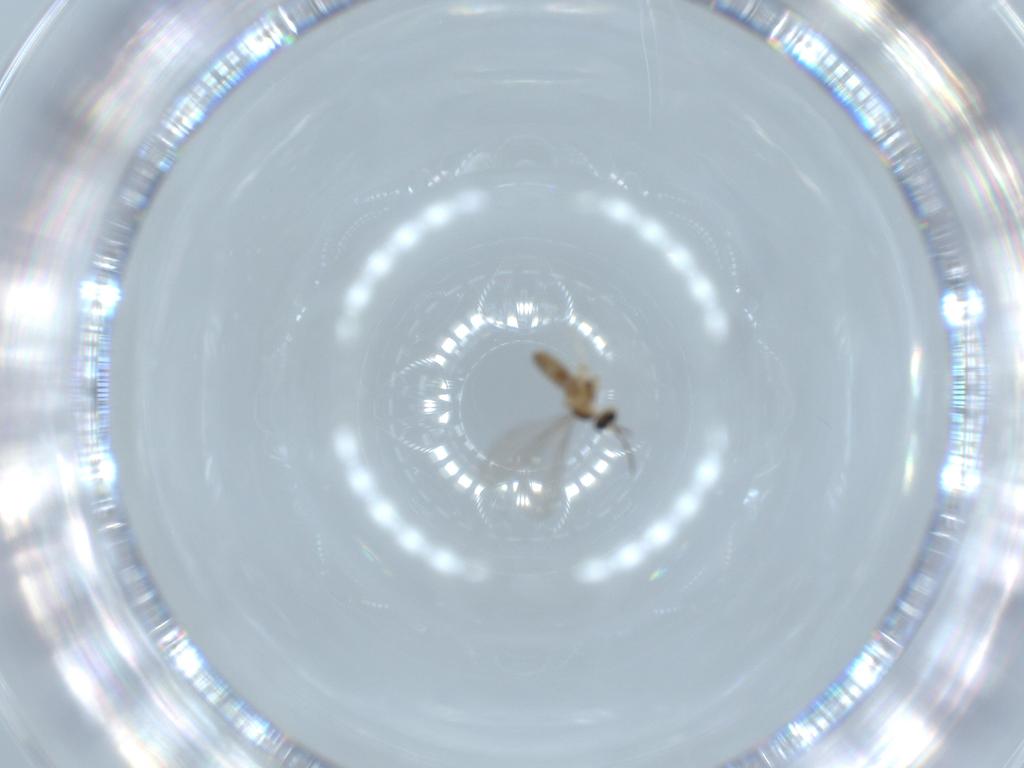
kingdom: Animalia
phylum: Arthropoda
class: Insecta
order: Diptera
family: Cecidomyiidae
